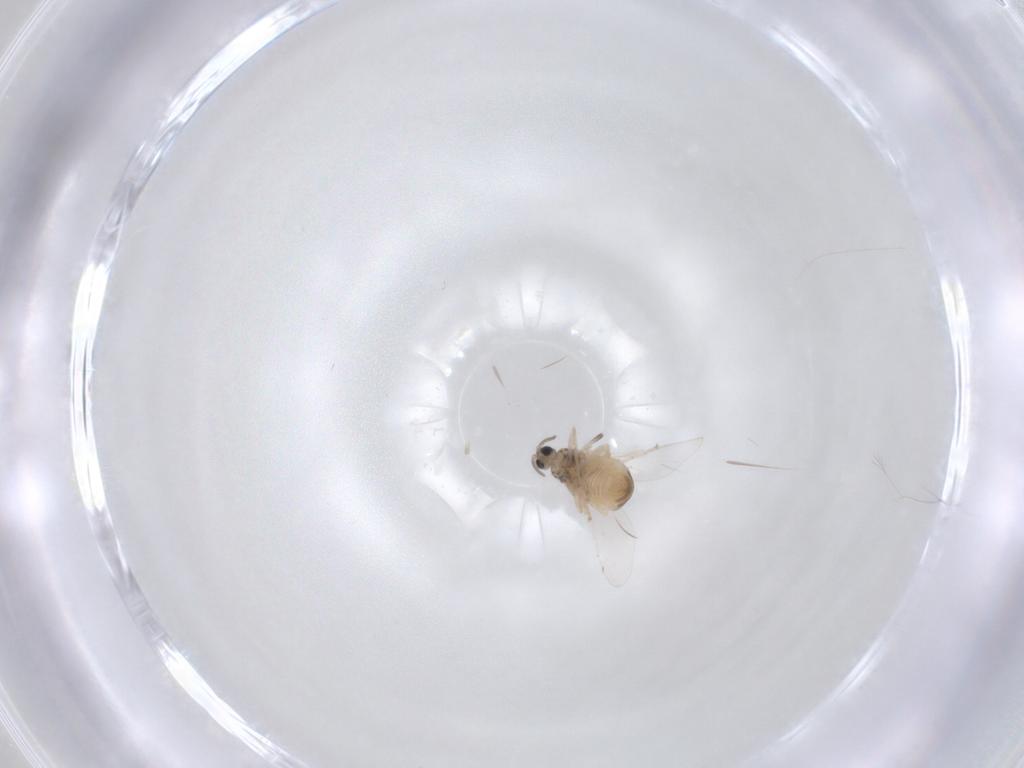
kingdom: Animalia
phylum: Arthropoda
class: Insecta
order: Diptera
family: Cecidomyiidae
